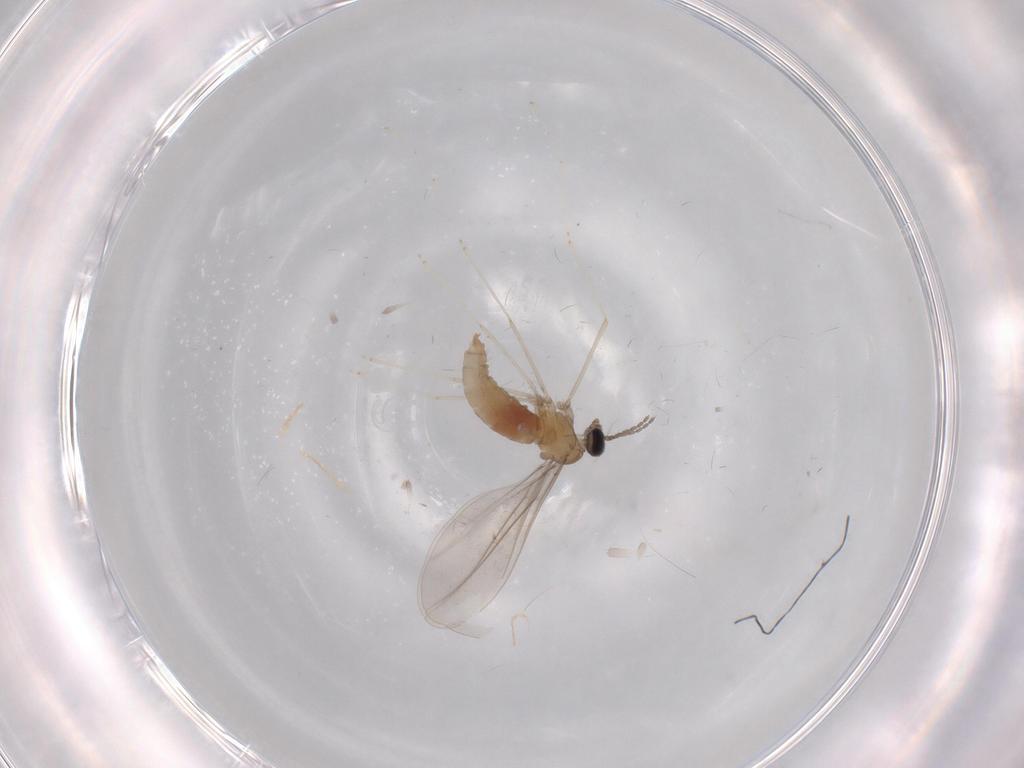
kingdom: Animalia
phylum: Arthropoda
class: Insecta
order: Diptera
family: Limoniidae
